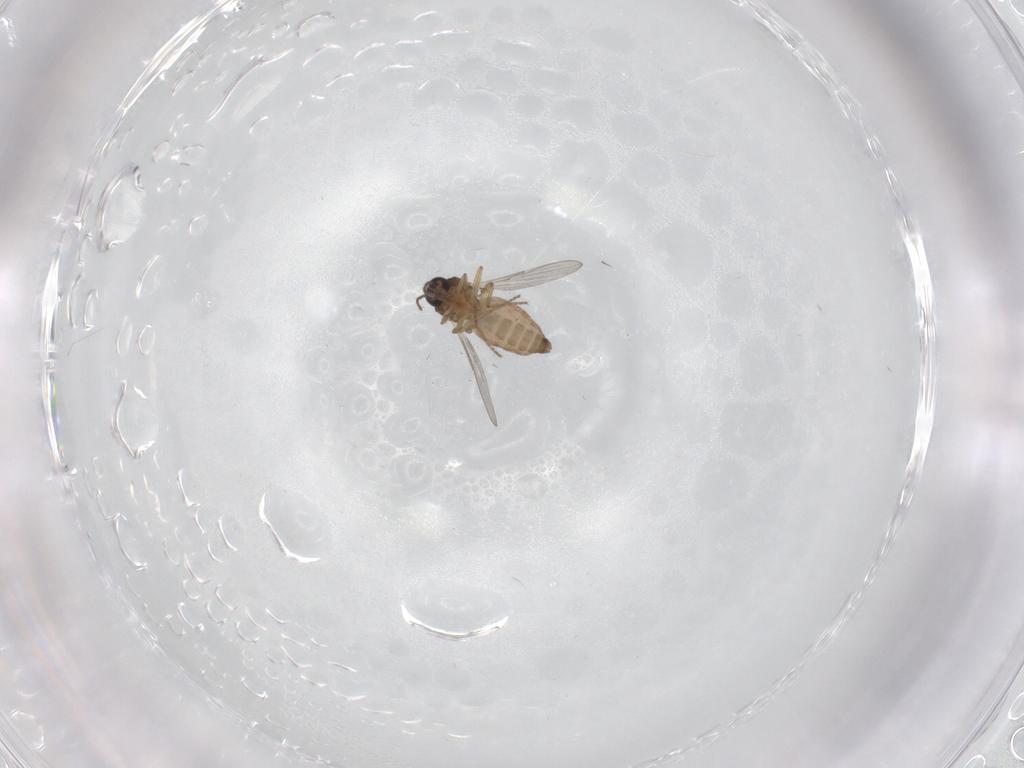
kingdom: Animalia
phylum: Arthropoda
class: Insecta
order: Diptera
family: Ceratopogonidae
